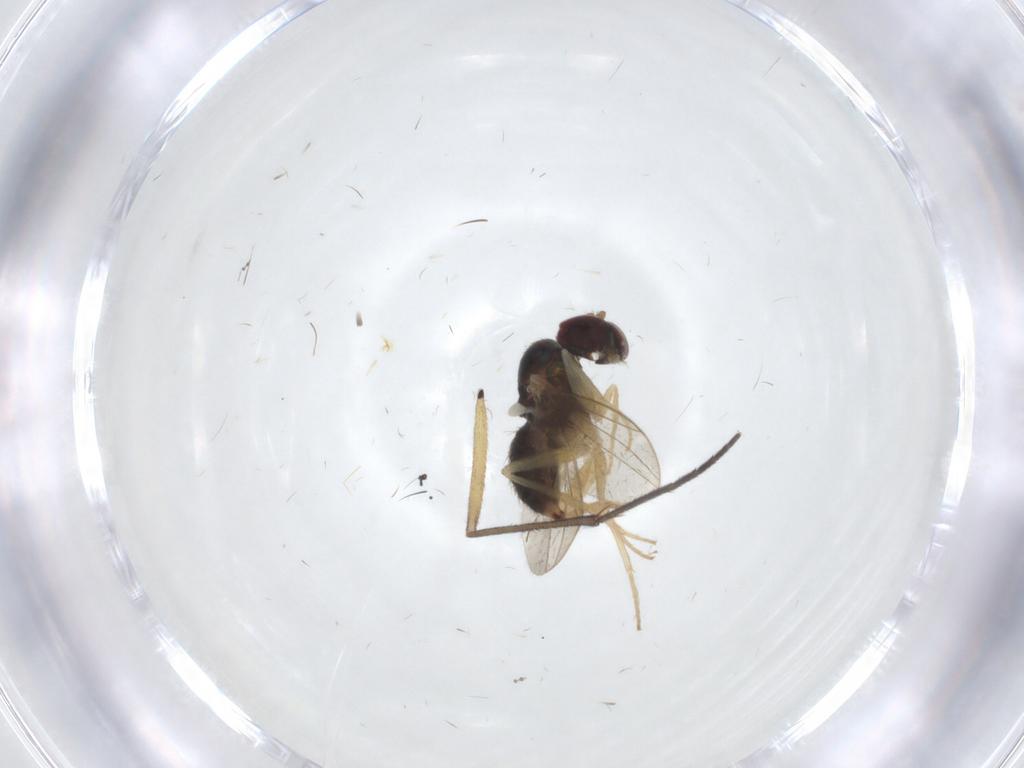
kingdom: Animalia
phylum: Arthropoda
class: Insecta
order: Diptera
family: Dolichopodidae
